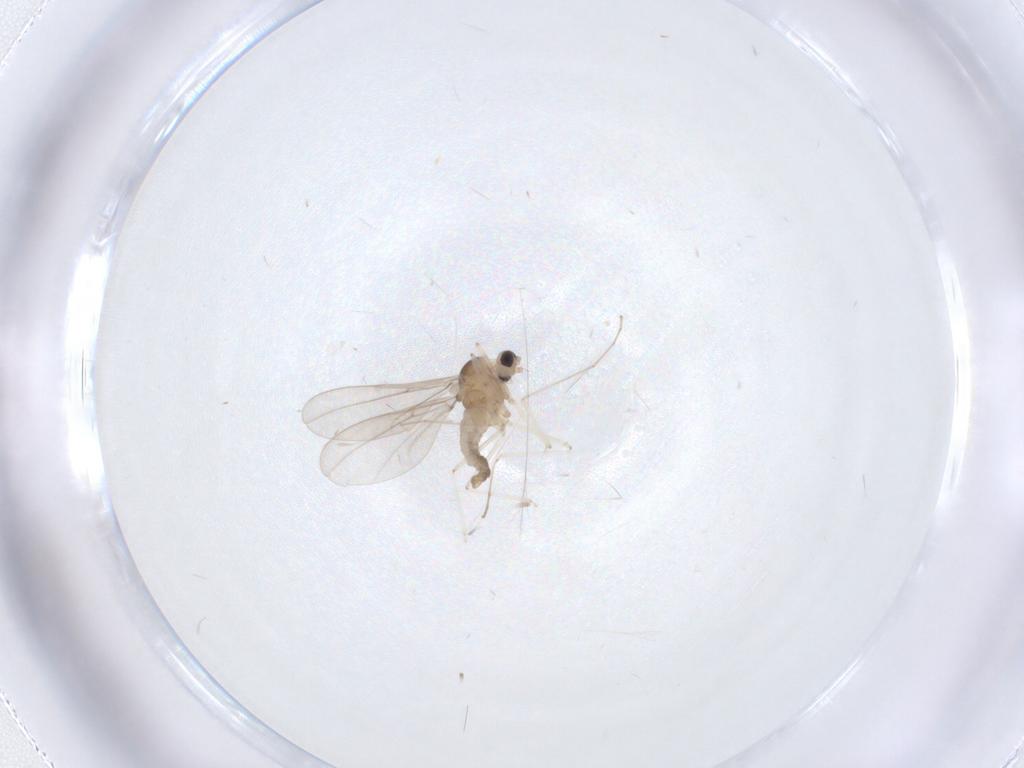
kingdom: Animalia
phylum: Arthropoda
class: Insecta
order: Diptera
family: Cecidomyiidae
